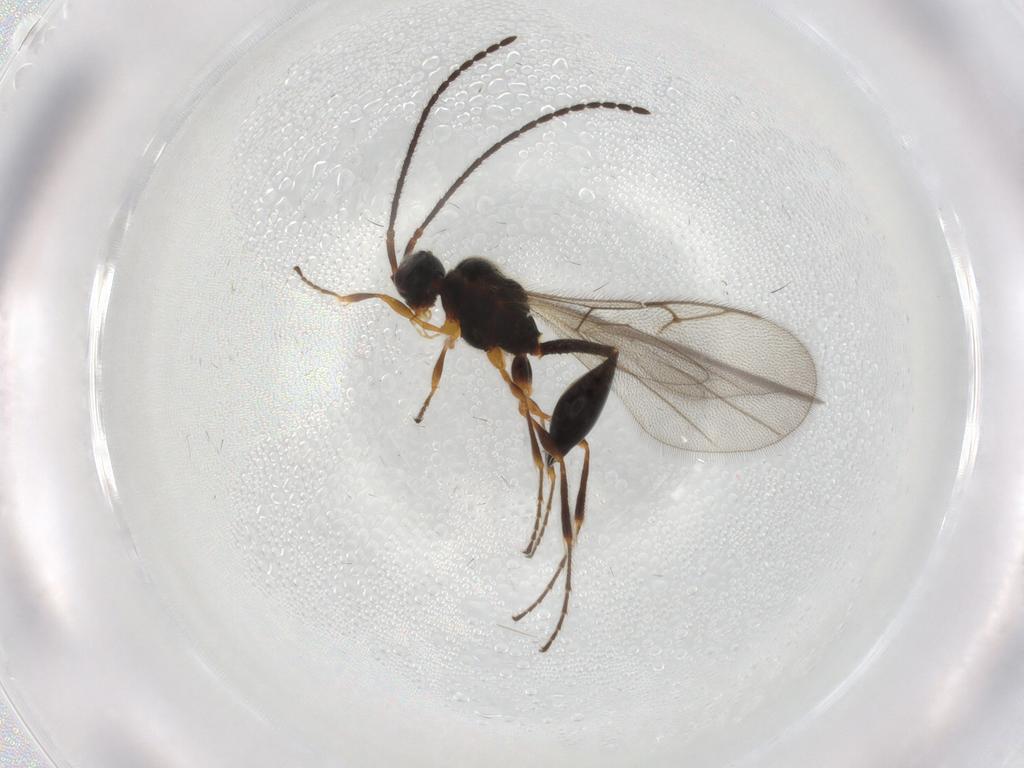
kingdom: Animalia
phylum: Arthropoda
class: Insecta
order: Hymenoptera
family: Diapriidae
